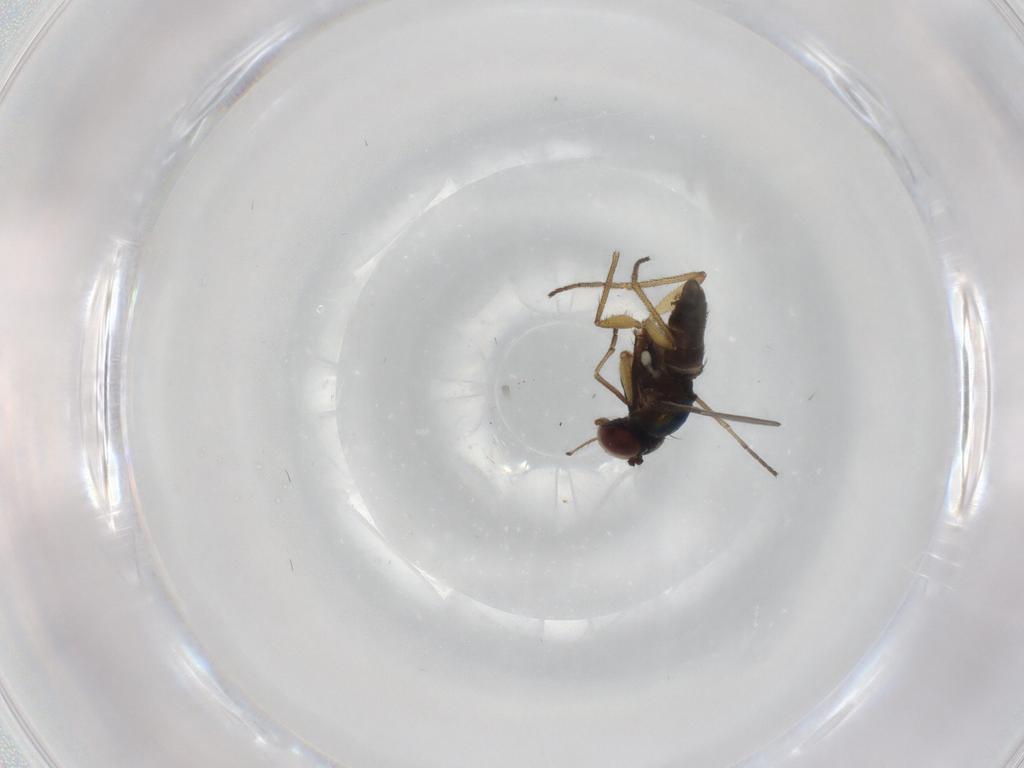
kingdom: Animalia
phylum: Arthropoda
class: Insecta
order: Diptera
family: Dolichopodidae
